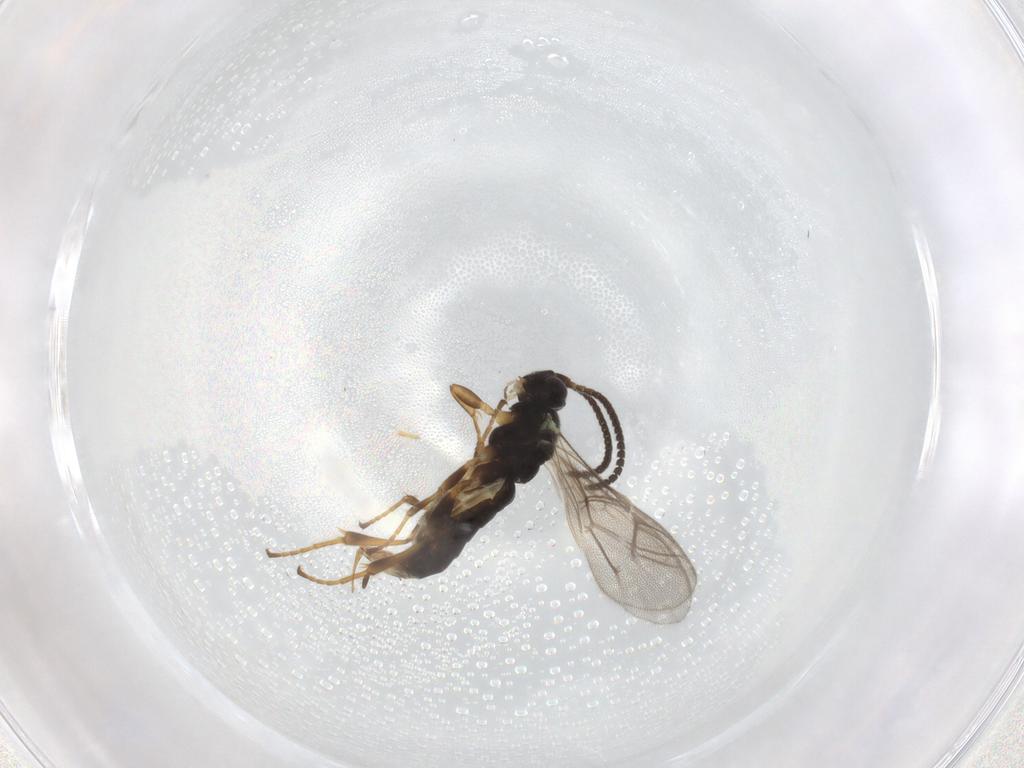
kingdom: Animalia
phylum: Arthropoda
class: Insecta
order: Hymenoptera
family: Ichneumonidae
